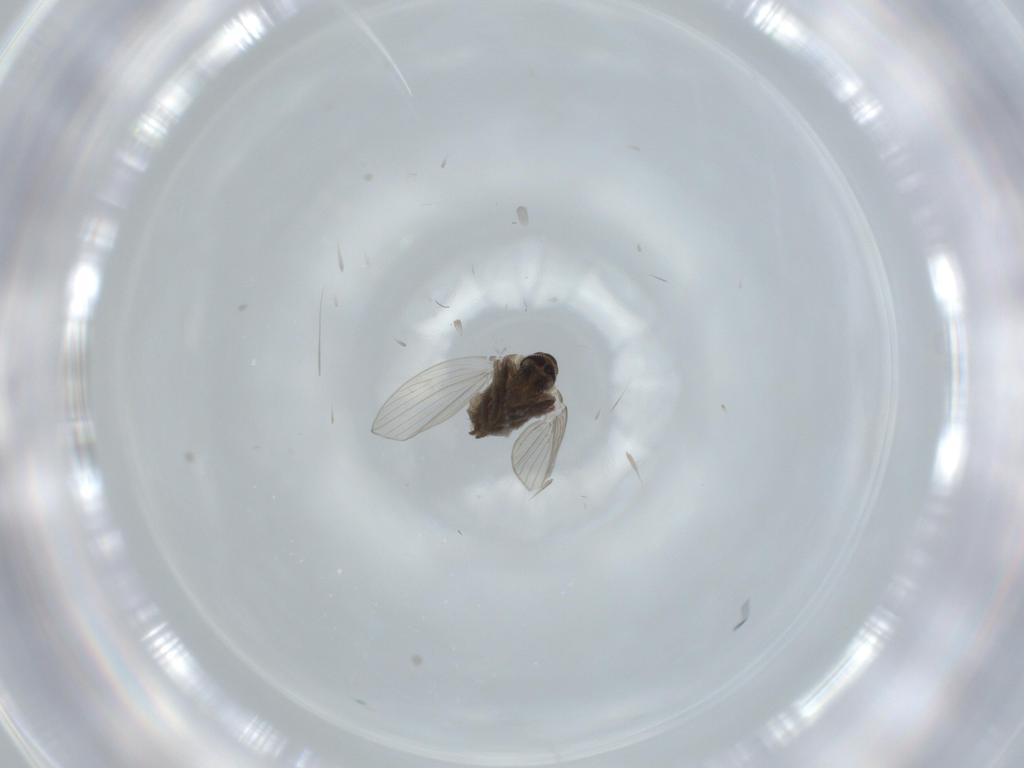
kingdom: Animalia
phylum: Arthropoda
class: Insecta
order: Diptera
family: Psychodidae
